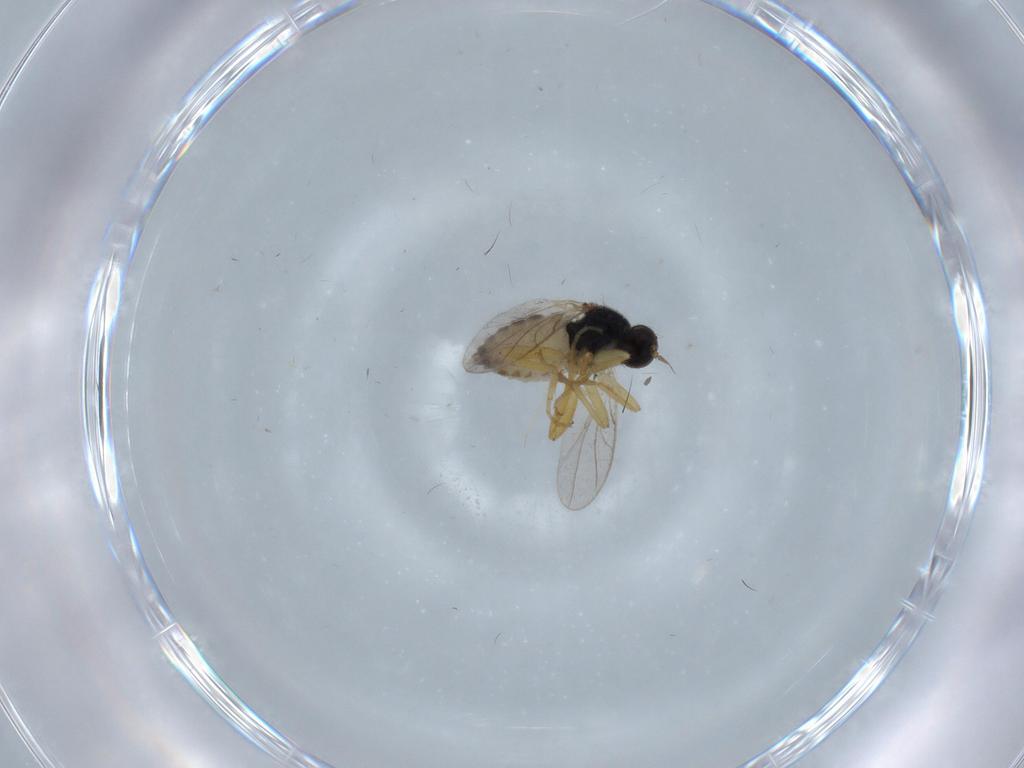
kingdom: Animalia
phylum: Arthropoda
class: Insecta
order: Diptera
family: Hybotidae
